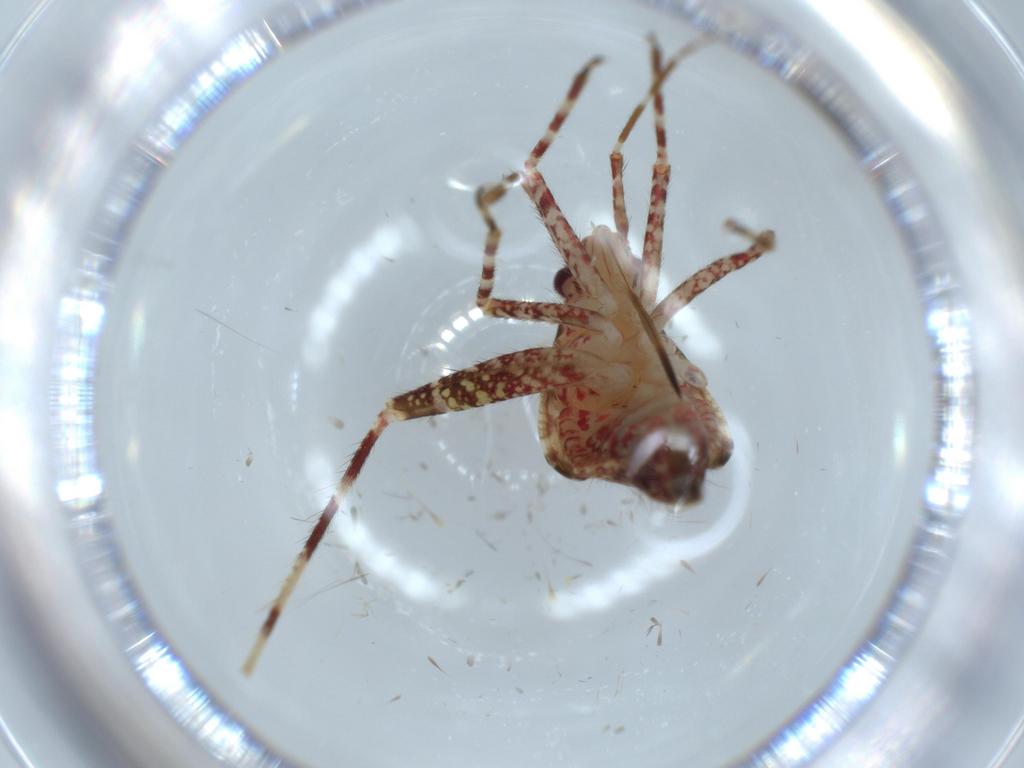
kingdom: Animalia
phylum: Arthropoda
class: Insecta
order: Hemiptera
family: Miridae
